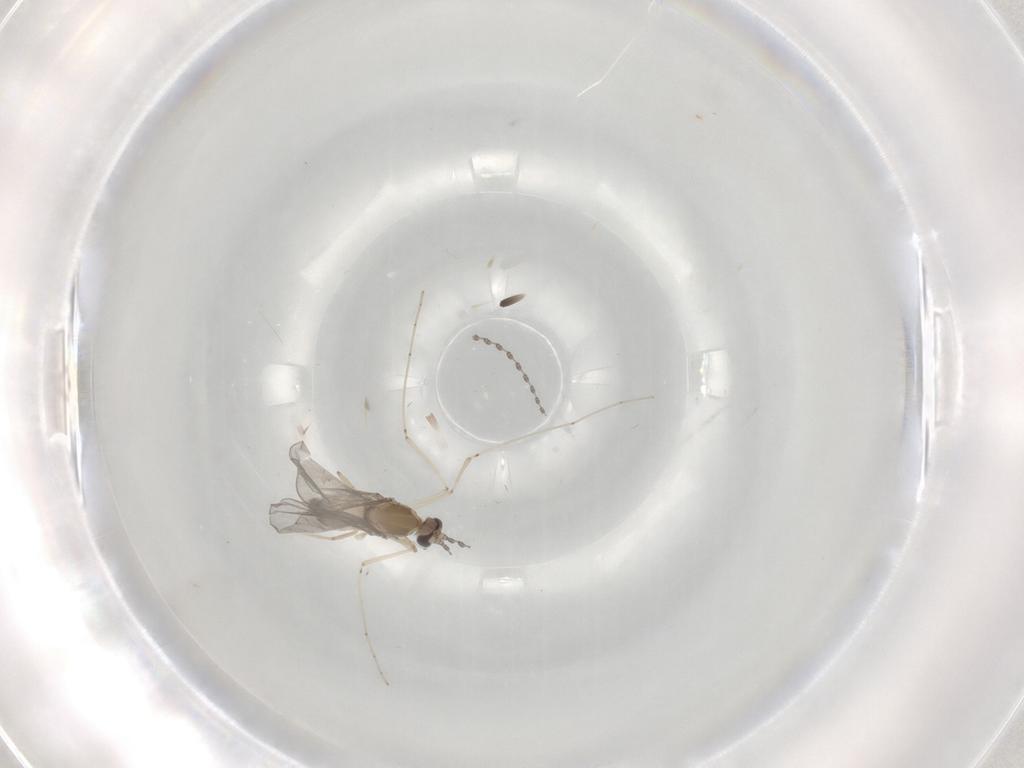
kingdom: Animalia
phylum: Arthropoda
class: Insecta
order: Diptera
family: Cecidomyiidae
